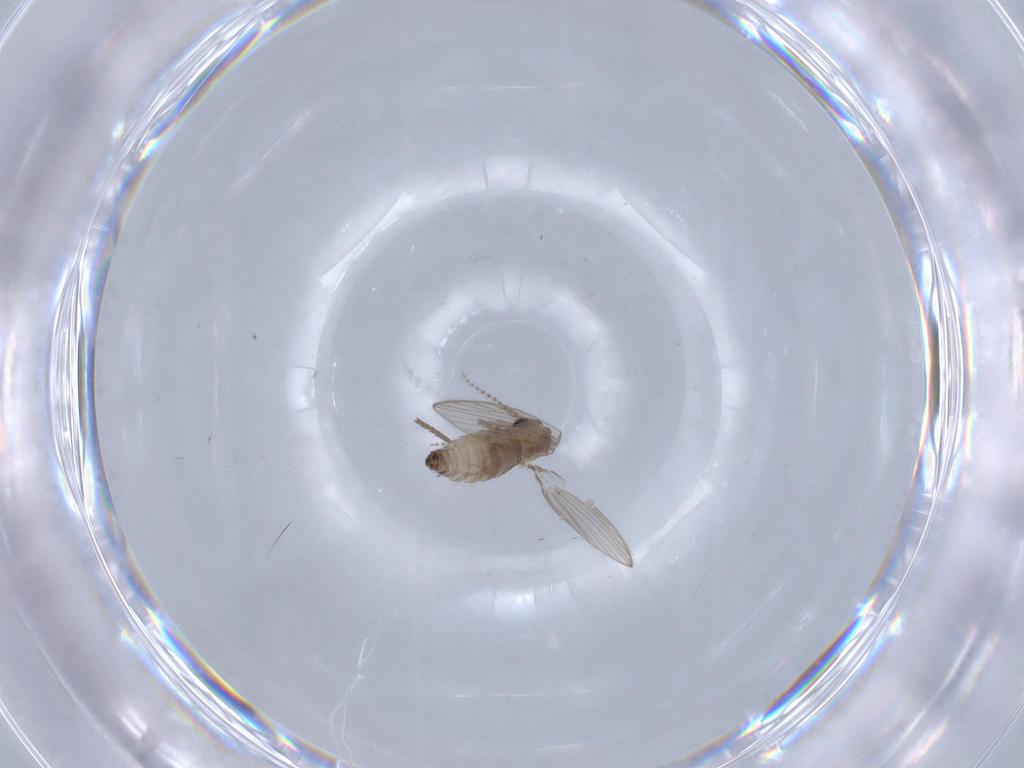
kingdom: Animalia
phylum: Arthropoda
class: Insecta
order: Diptera
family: Psychodidae
